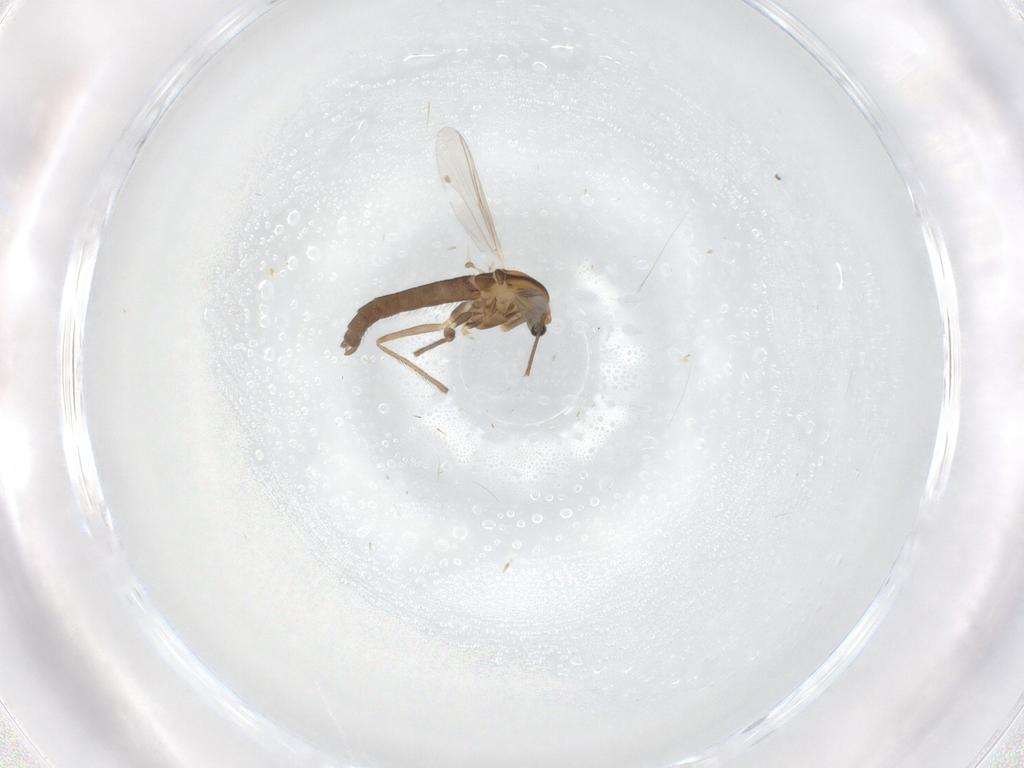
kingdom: Animalia
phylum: Arthropoda
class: Insecta
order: Diptera
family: Chironomidae
